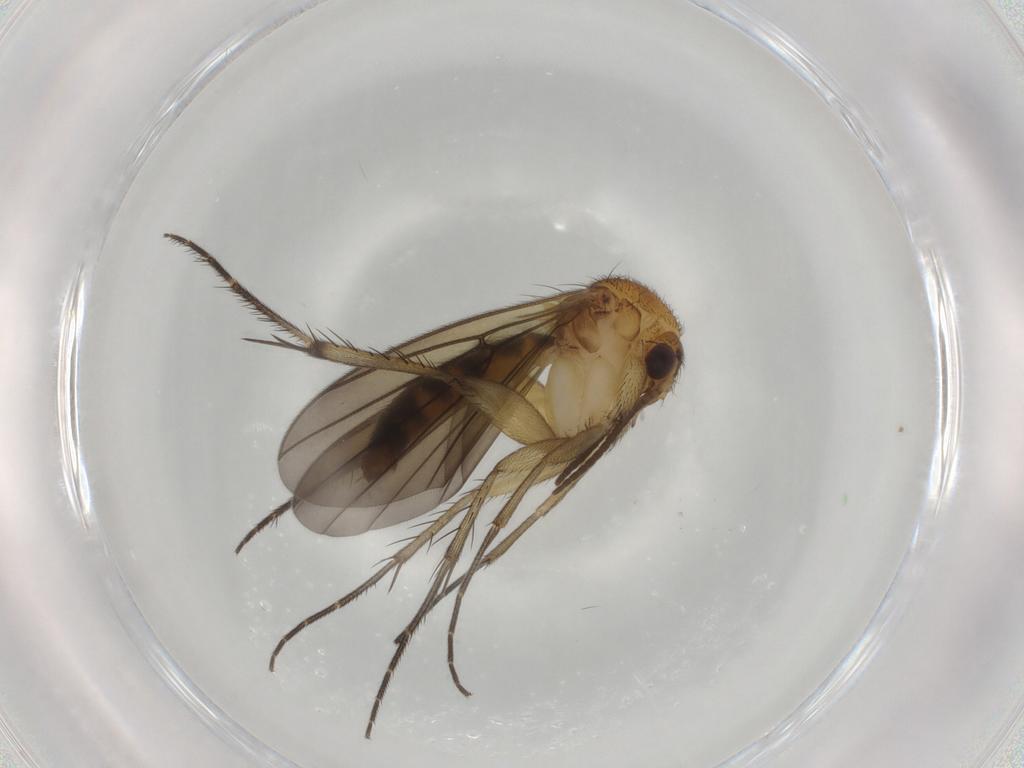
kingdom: Animalia
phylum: Arthropoda
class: Insecta
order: Diptera
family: Mycetophilidae
